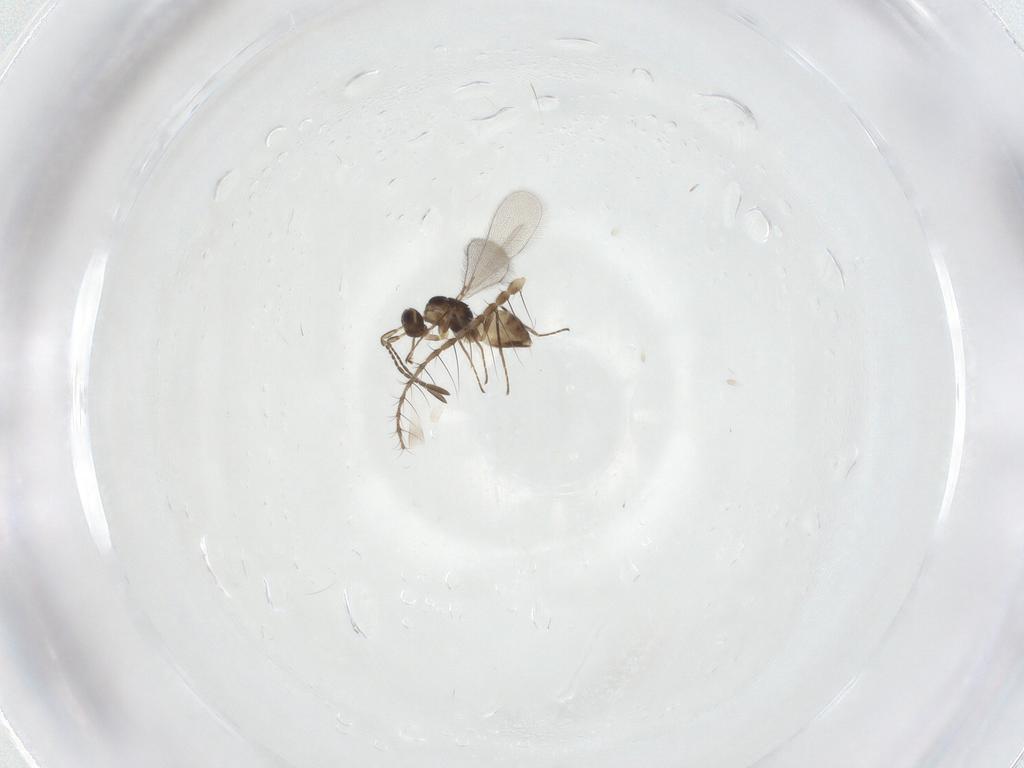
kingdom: Animalia
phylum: Arthropoda
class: Insecta
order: Hymenoptera
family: Mymaridae
